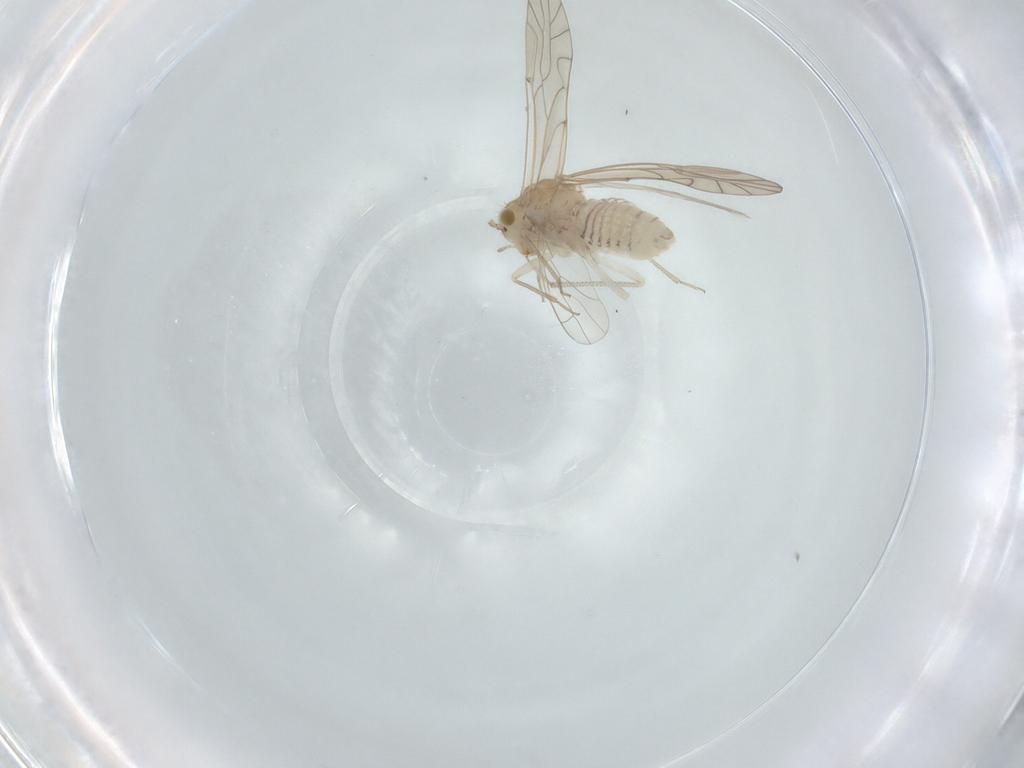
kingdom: Animalia
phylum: Arthropoda
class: Insecta
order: Psocodea
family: Lachesillidae
